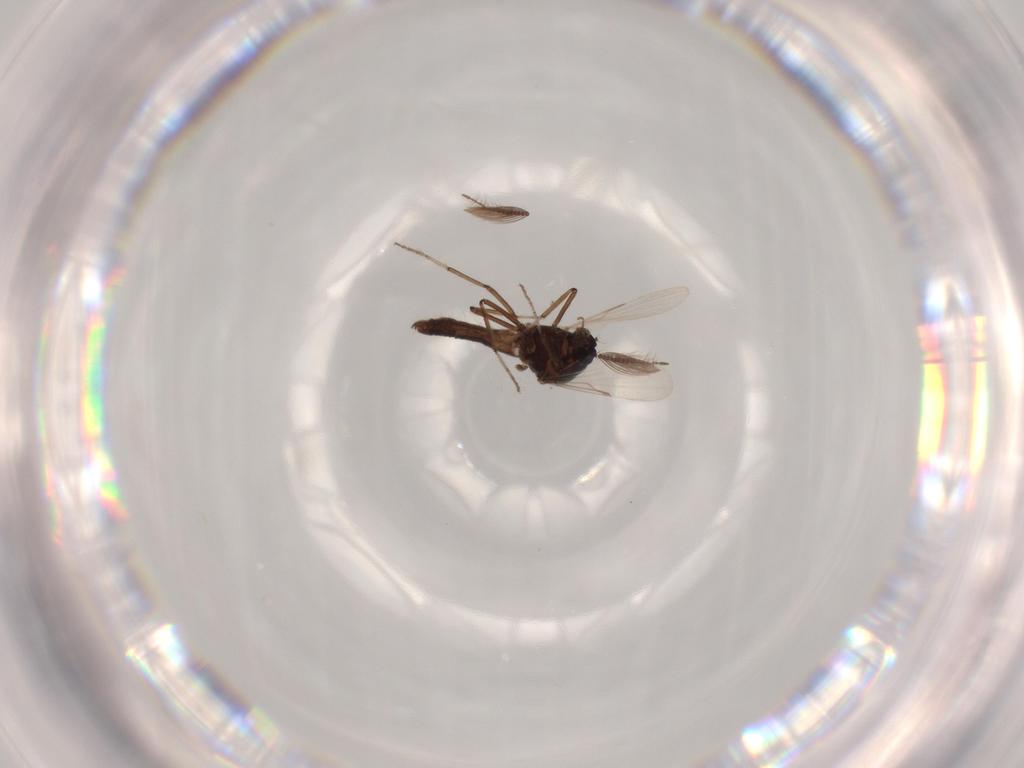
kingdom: Animalia
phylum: Arthropoda
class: Insecta
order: Diptera
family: Chironomidae
